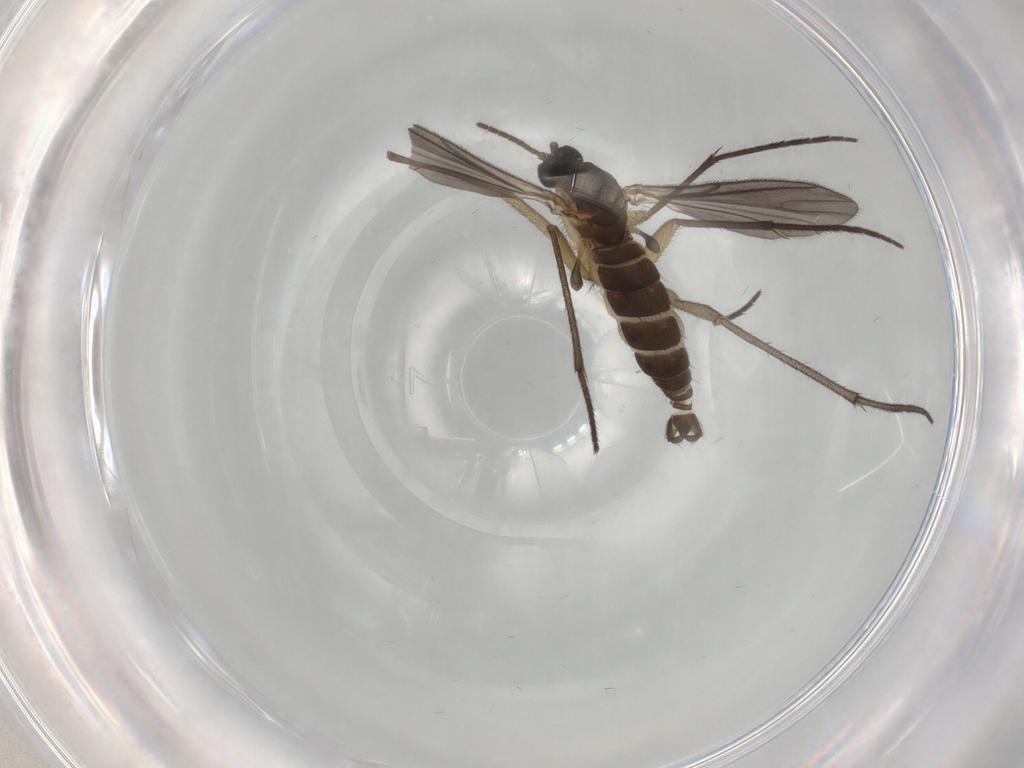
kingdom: Animalia
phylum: Arthropoda
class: Insecta
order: Diptera
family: Sciaridae
